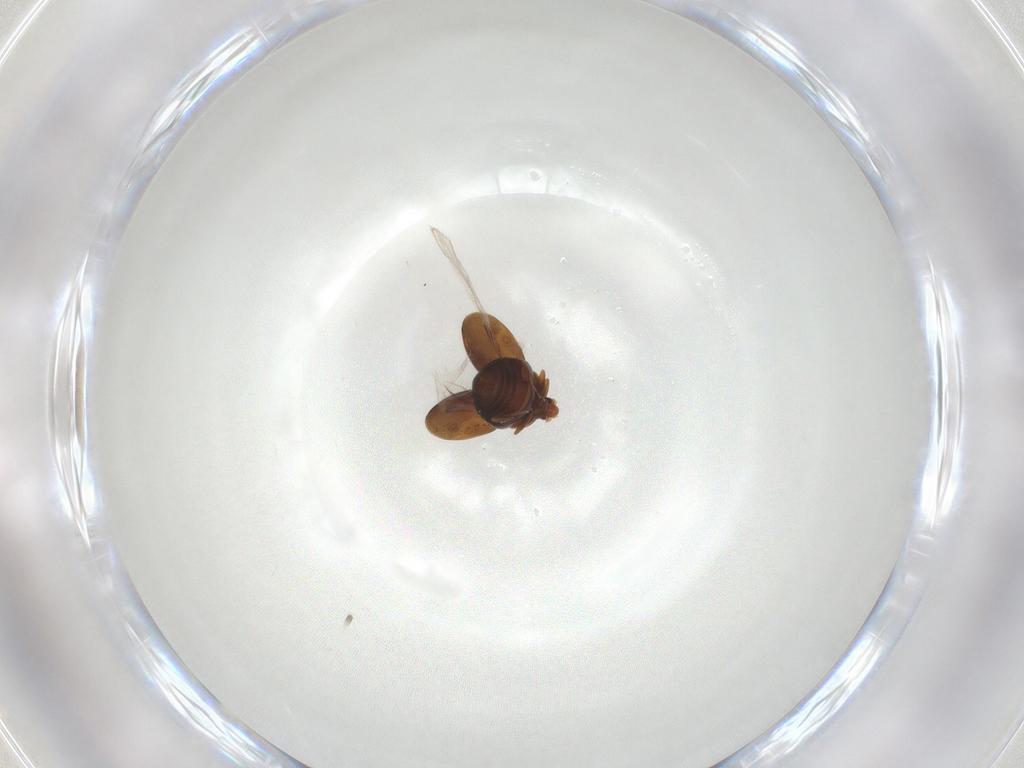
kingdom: Animalia
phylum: Arthropoda
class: Insecta
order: Coleoptera
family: Corylophidae
